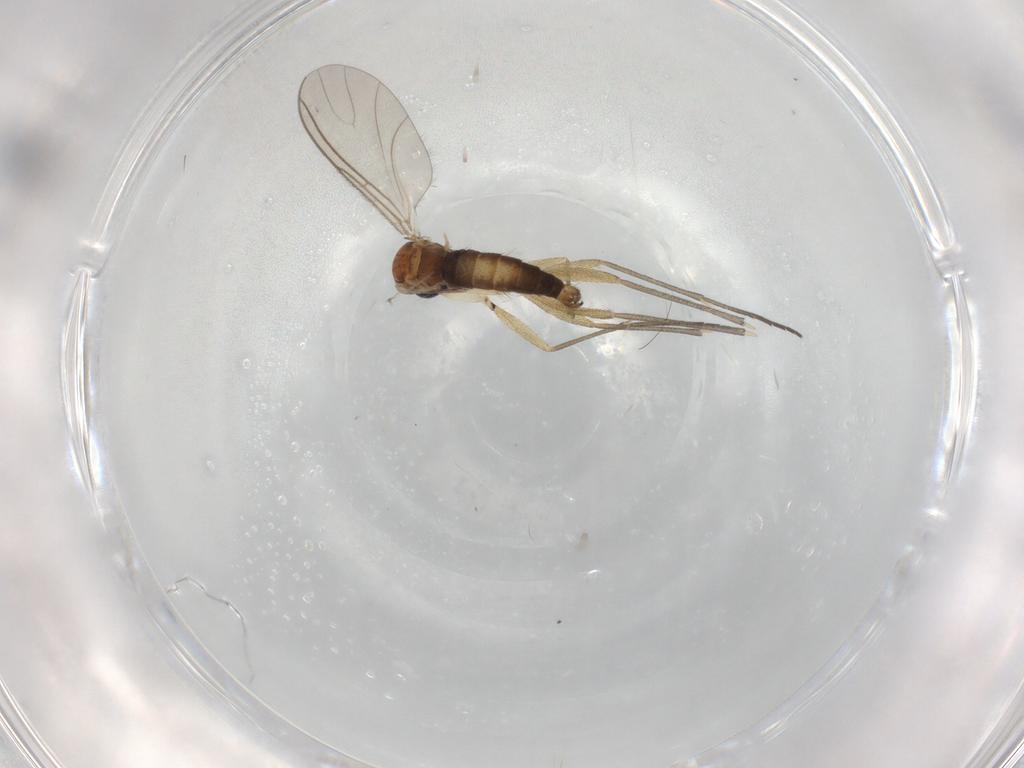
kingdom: Animalia
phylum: Arthropoda
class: Insecta
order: Diptera
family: Sciaridae
